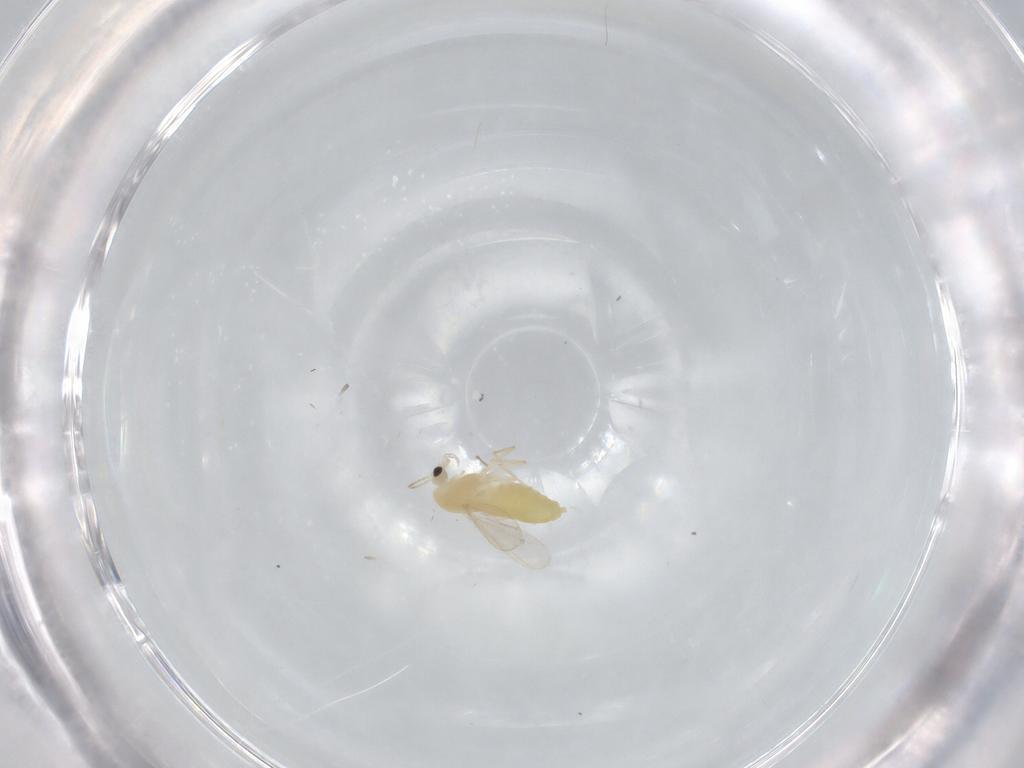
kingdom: Animalia
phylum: Arthropoda
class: Insecta
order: Diptera
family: Chironomidae
